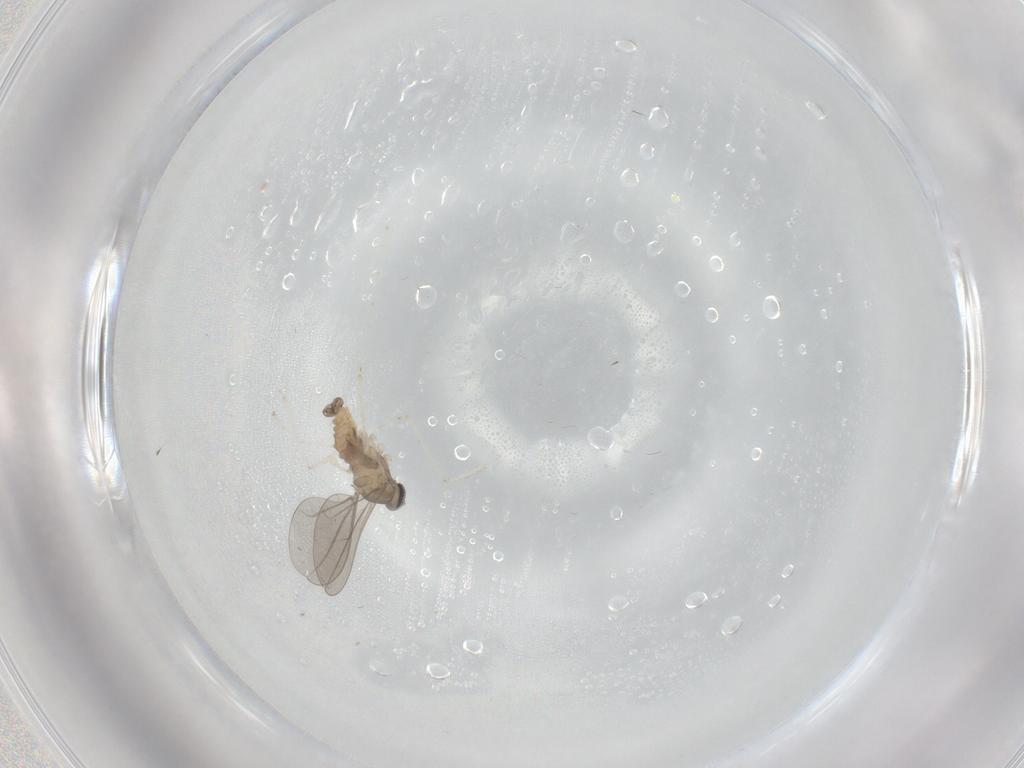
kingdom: Animalia
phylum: Arthropoda
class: Insecta
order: Diptera
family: Cecidomyiidae
